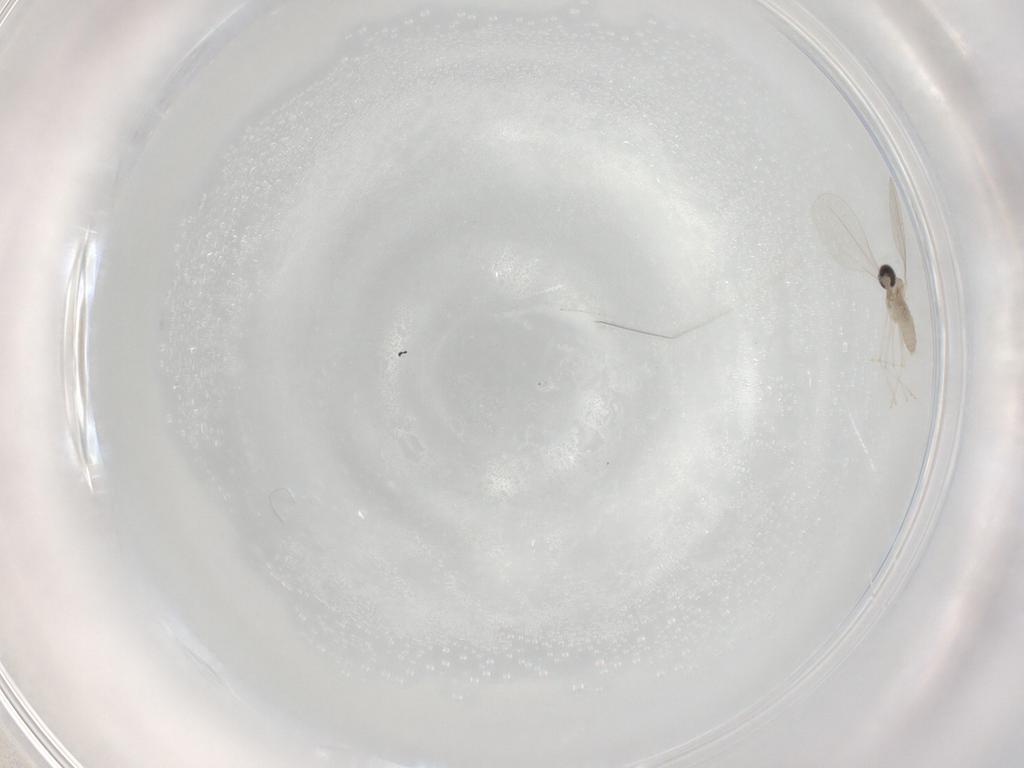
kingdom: Animalia
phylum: Arthropoda
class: Insecta
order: Diptera
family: Cecidomyiidae
